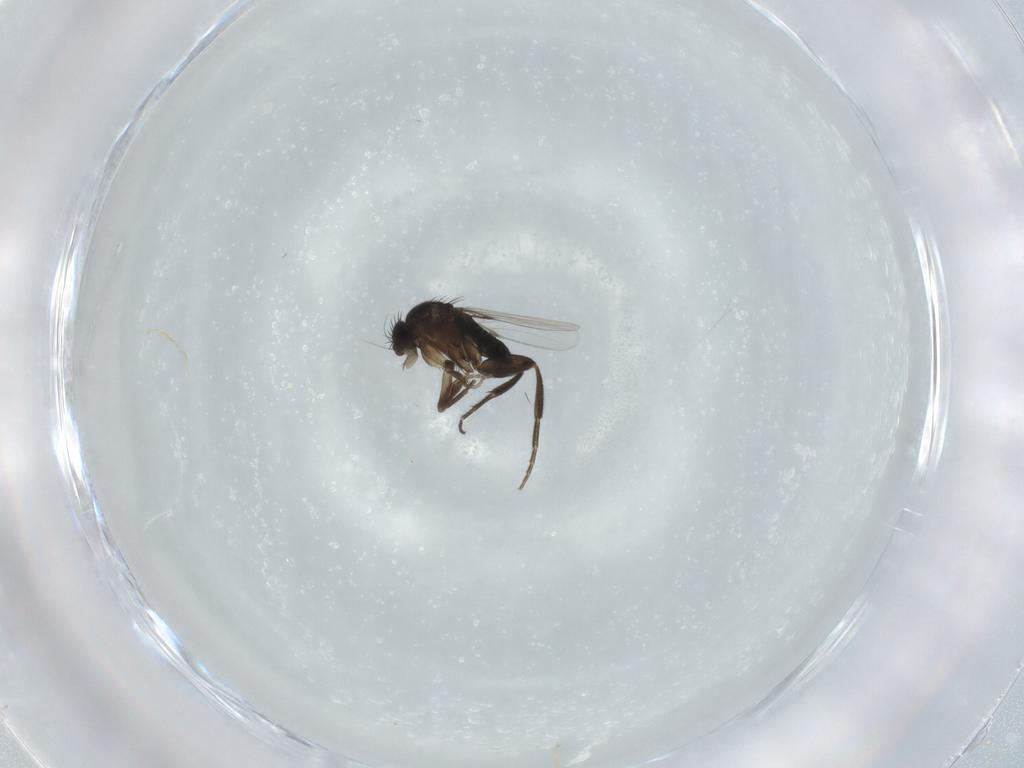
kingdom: Animalia
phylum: Arthropoda
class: Insecta
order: Diptera
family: Phoridae
